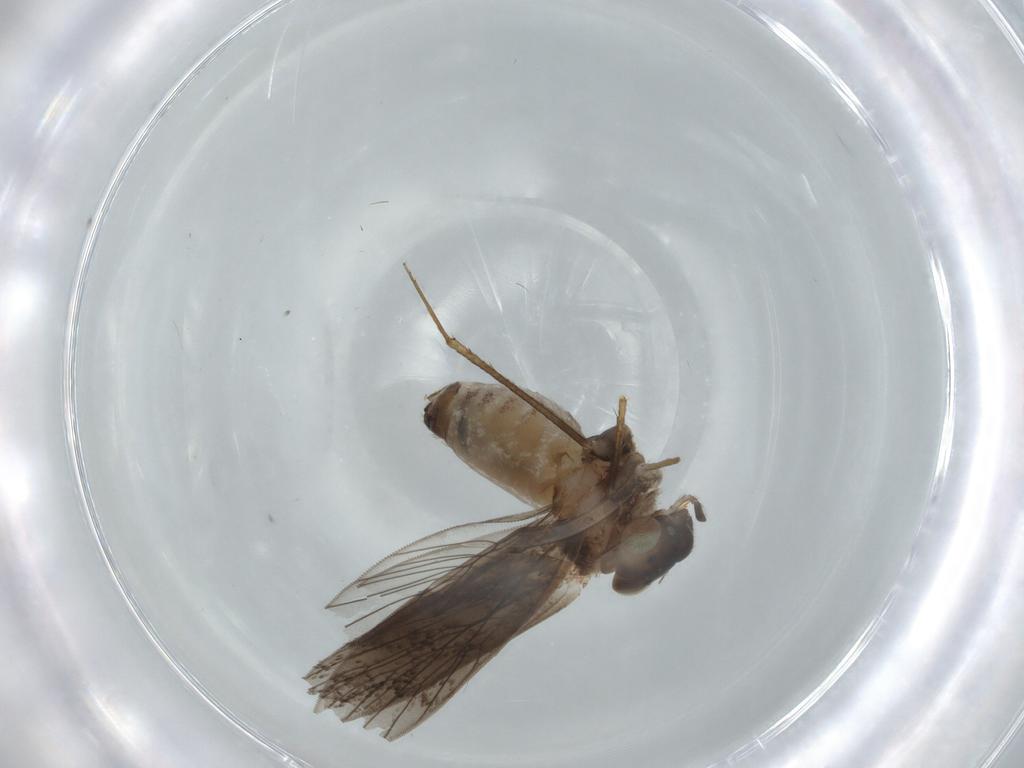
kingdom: Animalia
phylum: Arthropoda
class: Insecta
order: Psocodea
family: Lepidopsocidae
